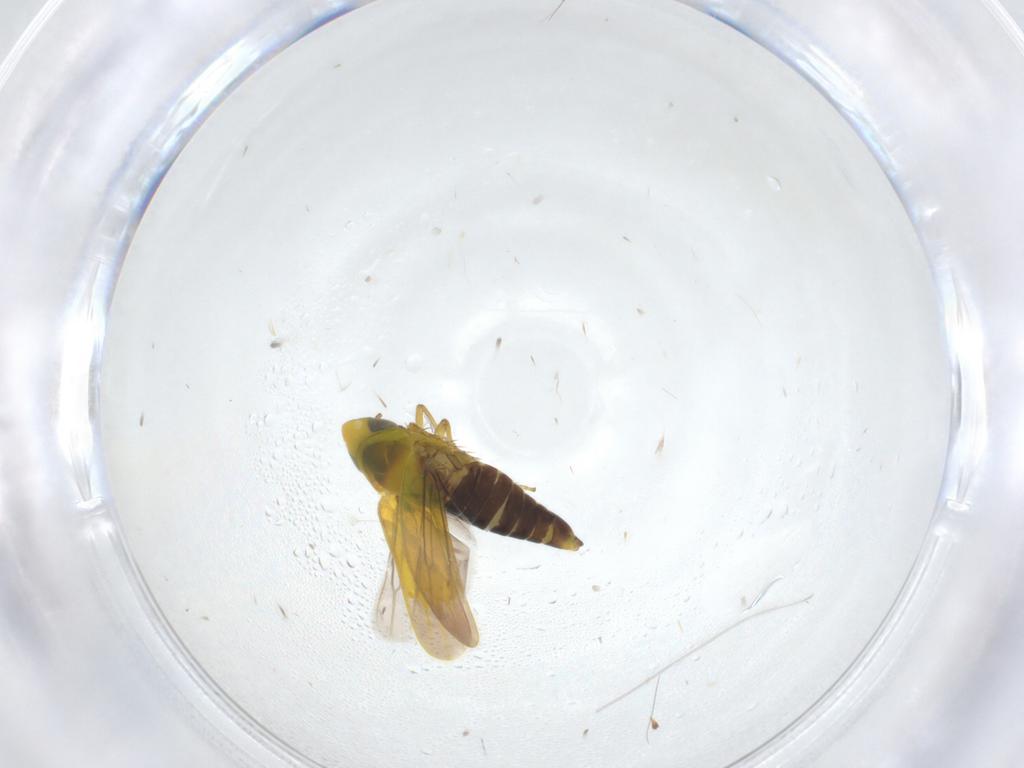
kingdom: Animalia
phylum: Arthropoda
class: Insecta
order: Hemiptera
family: Cicadellidae
